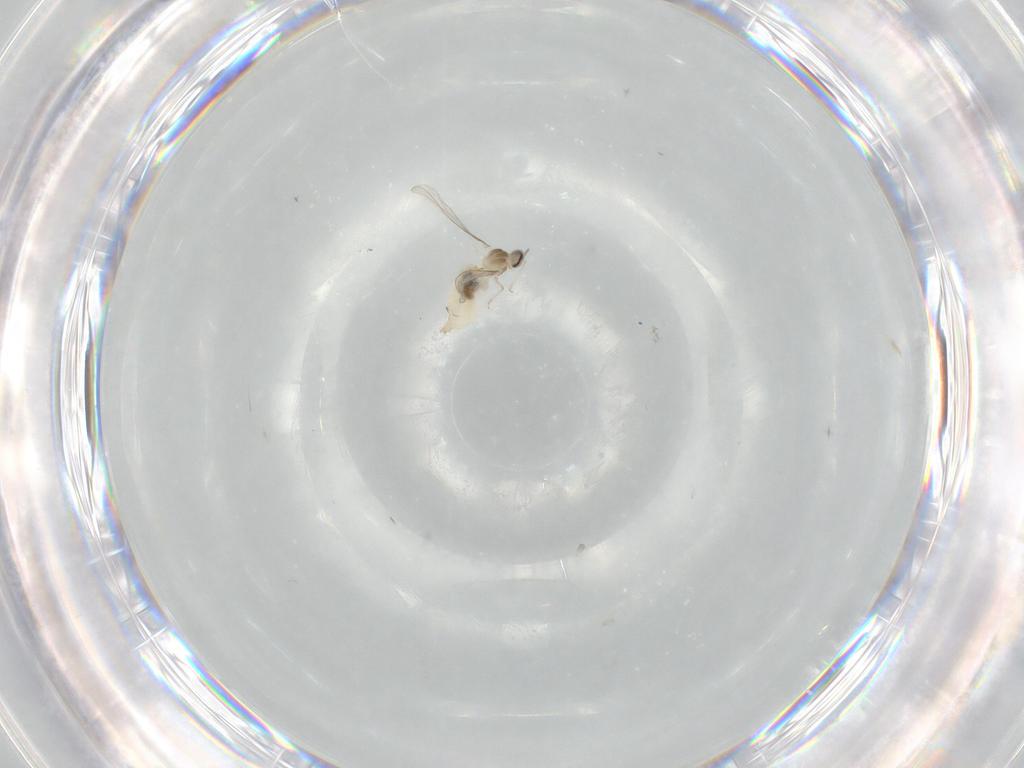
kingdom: Animalia
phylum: Arthropoda
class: Insecta
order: Diptera
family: Cecidomyiidae
